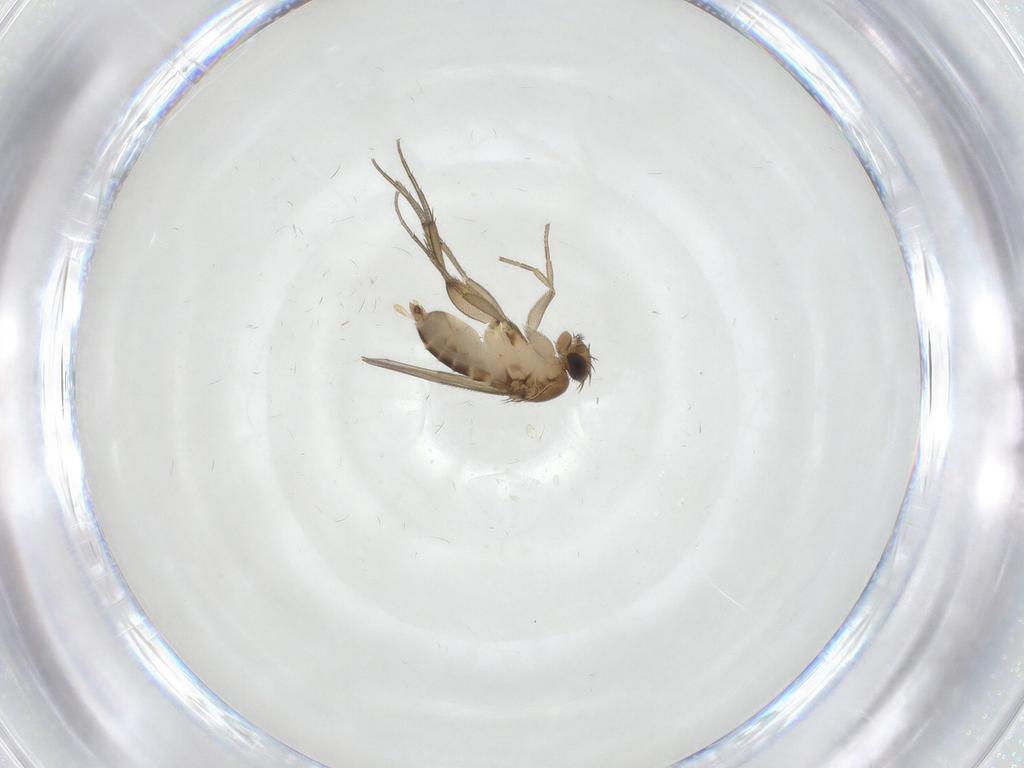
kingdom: Animalia
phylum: Arthropoda
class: Insecta
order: Diptera
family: Phoridae
